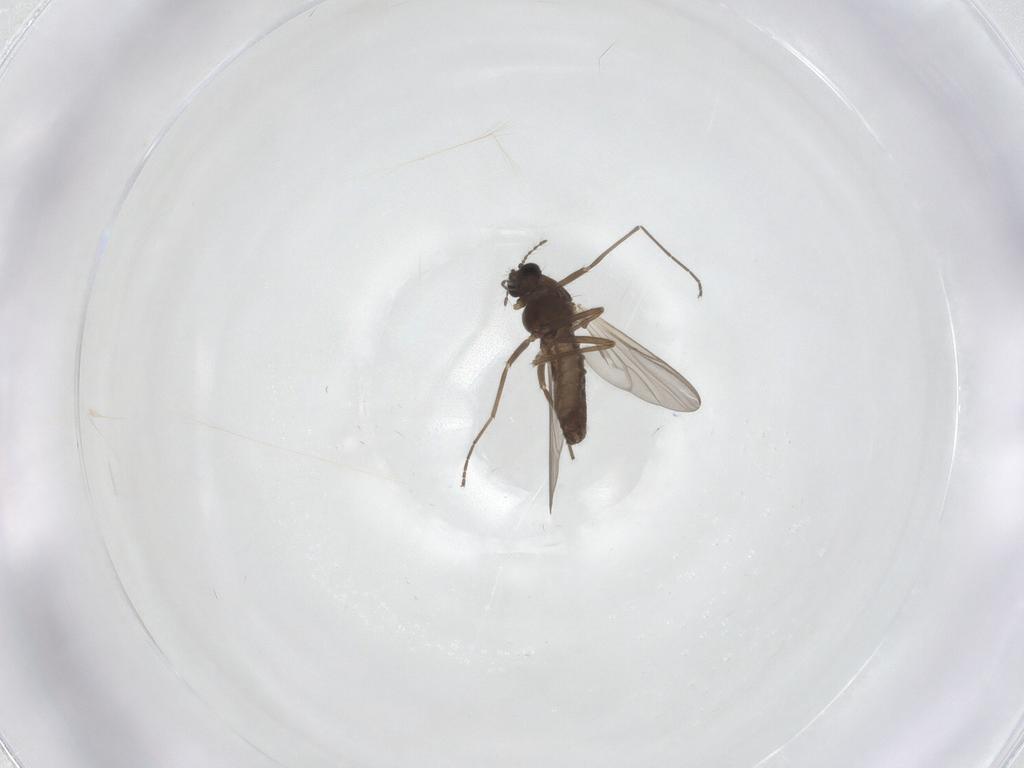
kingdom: Animalia
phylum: Arthropoda
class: Insecta
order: Diptera
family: Chironomidae
